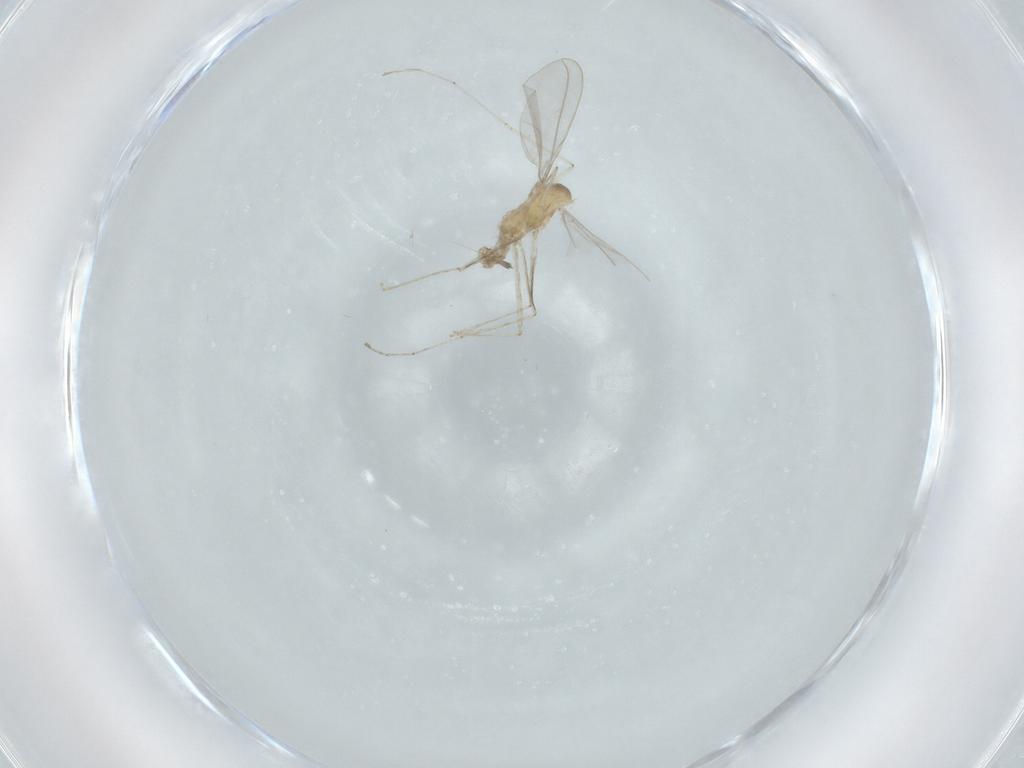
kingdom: Animalia
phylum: Arthropoda
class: Insecta
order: Diptera
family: Cecidomyiidae
